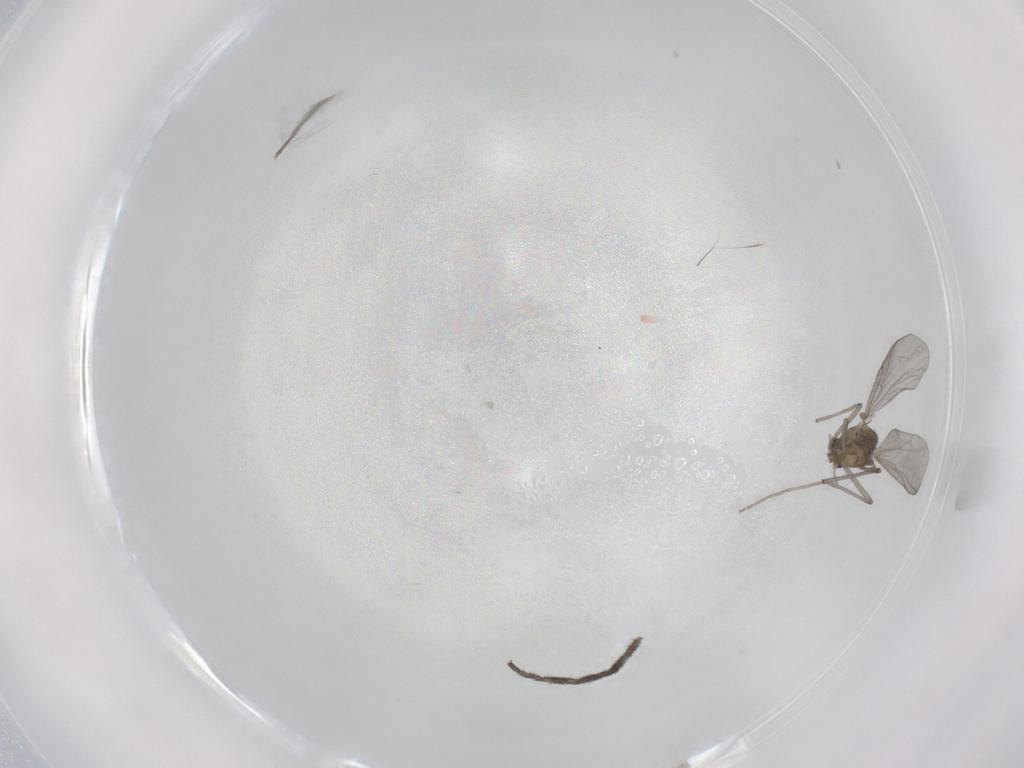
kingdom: Animalia
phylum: Arthropoda
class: Insecta
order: Diptera
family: Chironomidae
